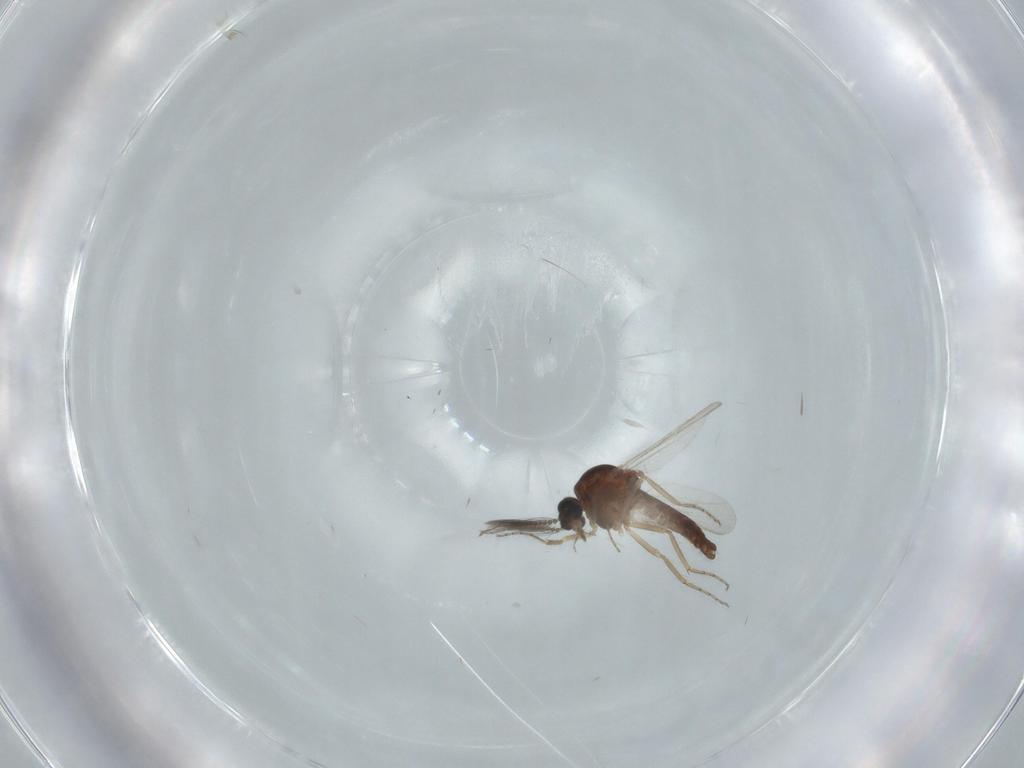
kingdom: Animalia
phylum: Arthropoda
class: Insecta
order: Diptera
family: Ceratopogonidae
